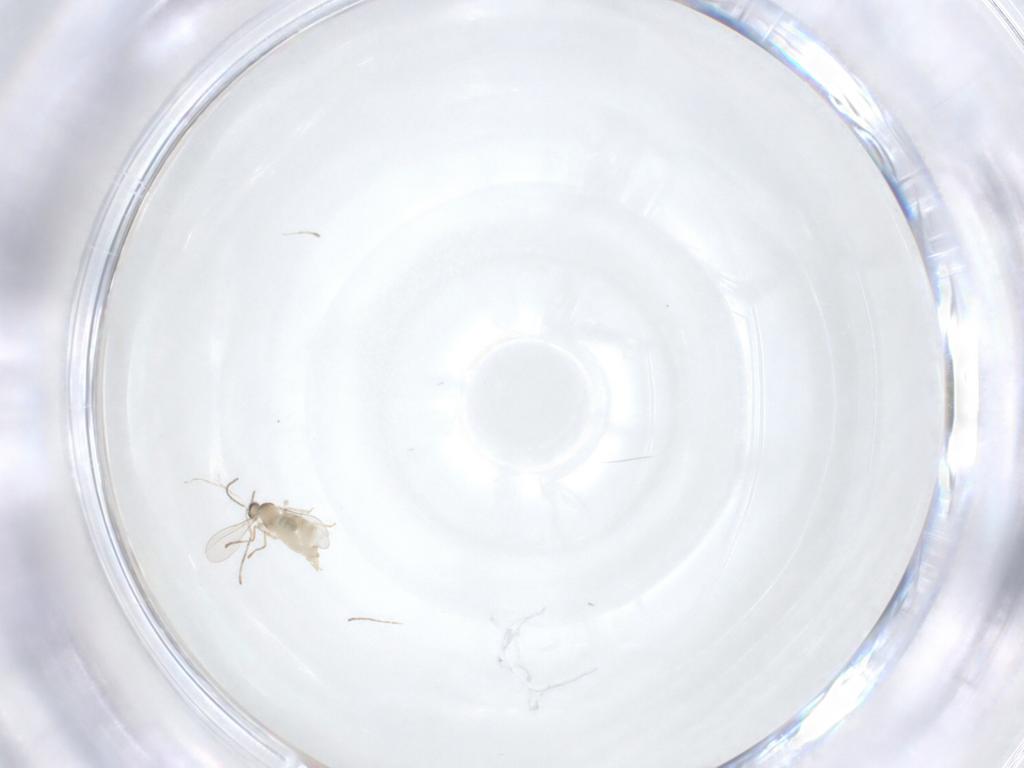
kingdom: Animalia
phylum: Arthropoda
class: Insecta
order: Diptera
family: Cecidomyiidae
